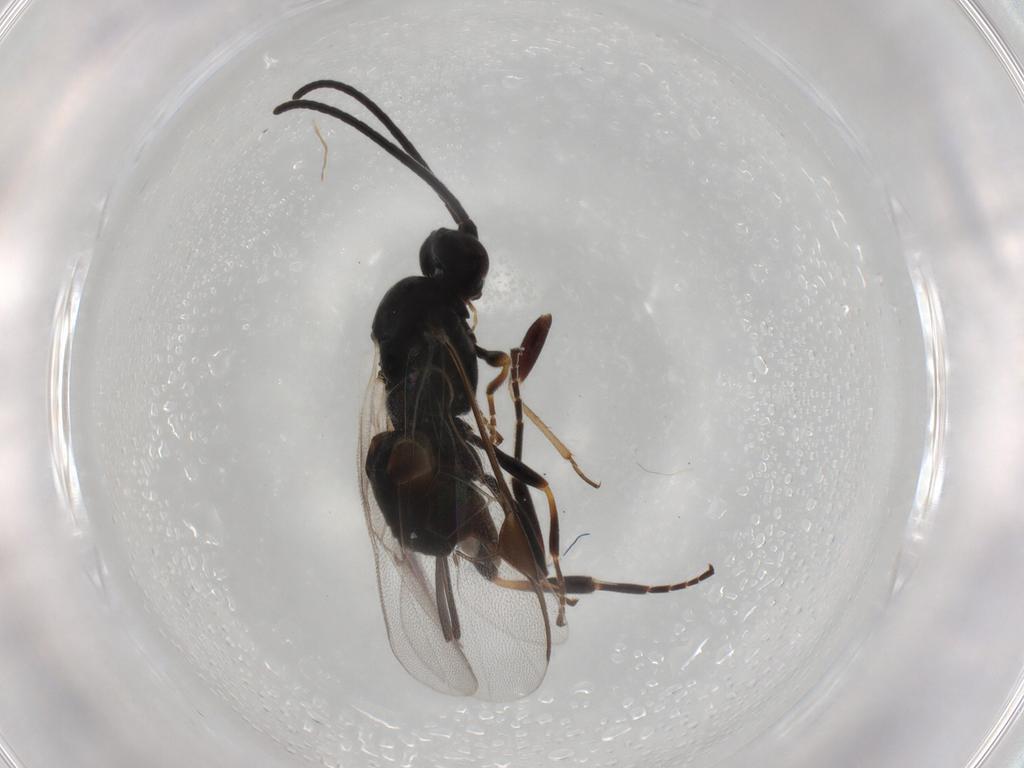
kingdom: Animalia
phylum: Arthropoda
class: Insecta
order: Hymenoptera
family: Braconidae
